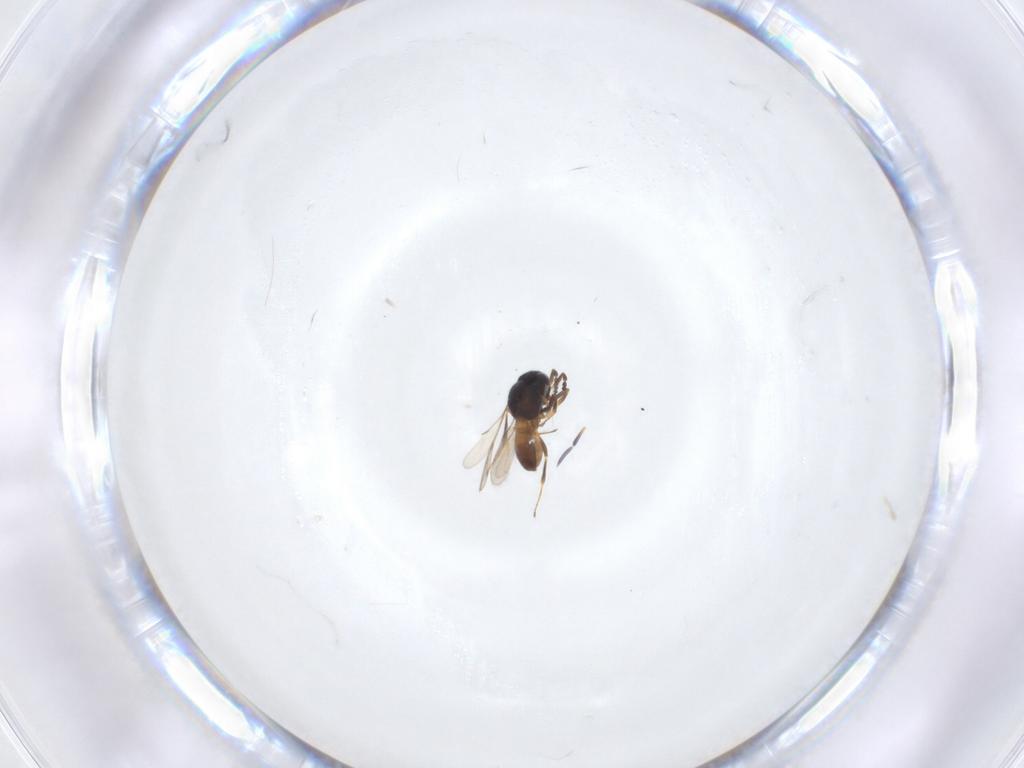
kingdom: Animalia
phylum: Arthropoda
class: Insecta
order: Hymenoptera
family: Scelionidae
